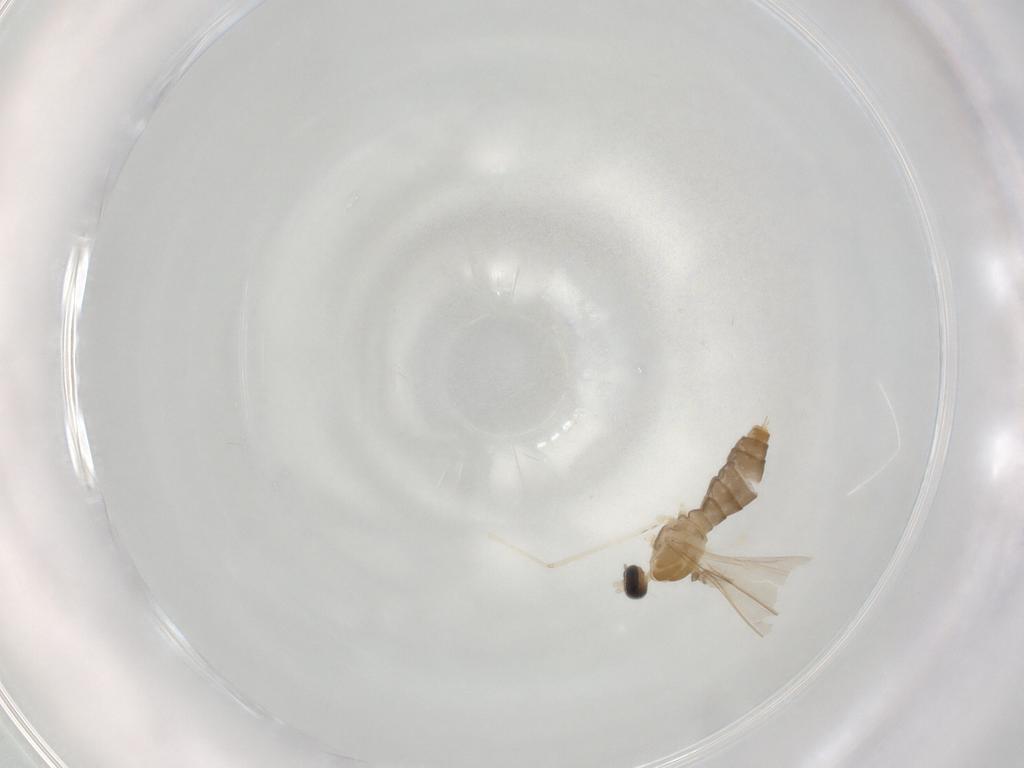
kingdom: Animalia
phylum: Arthropoda
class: Insecta
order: Diptera
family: Cecidomyiidae
